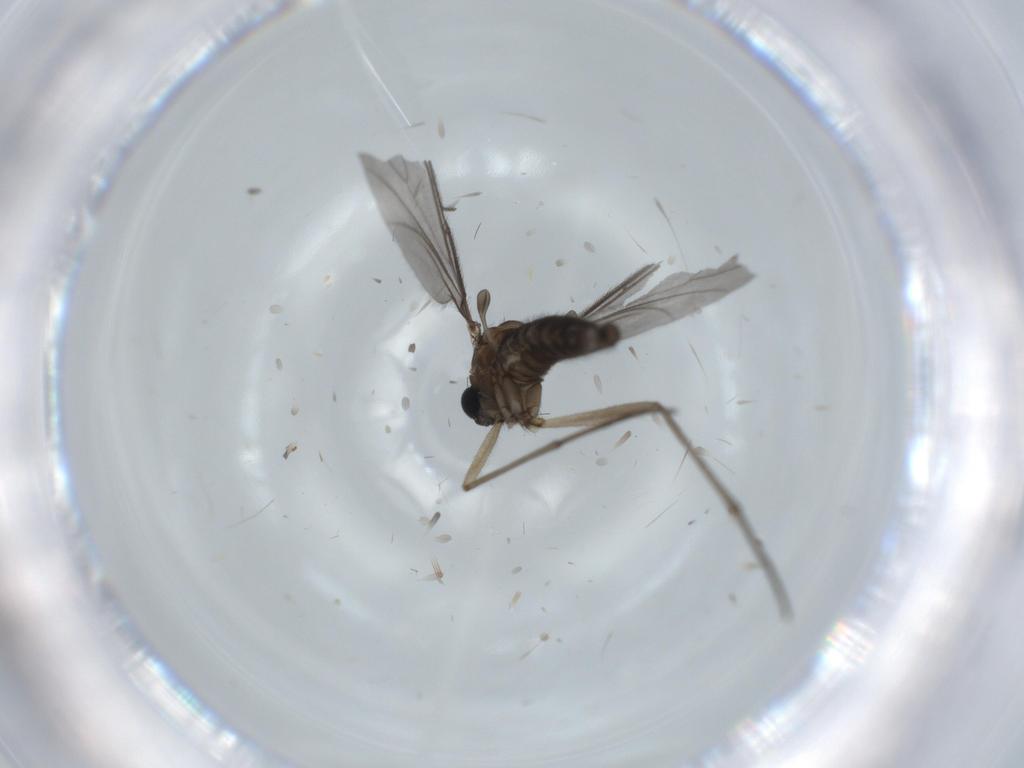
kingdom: Animalia
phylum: Arthropoda
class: Insecta
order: Diptera
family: Sciaridae
